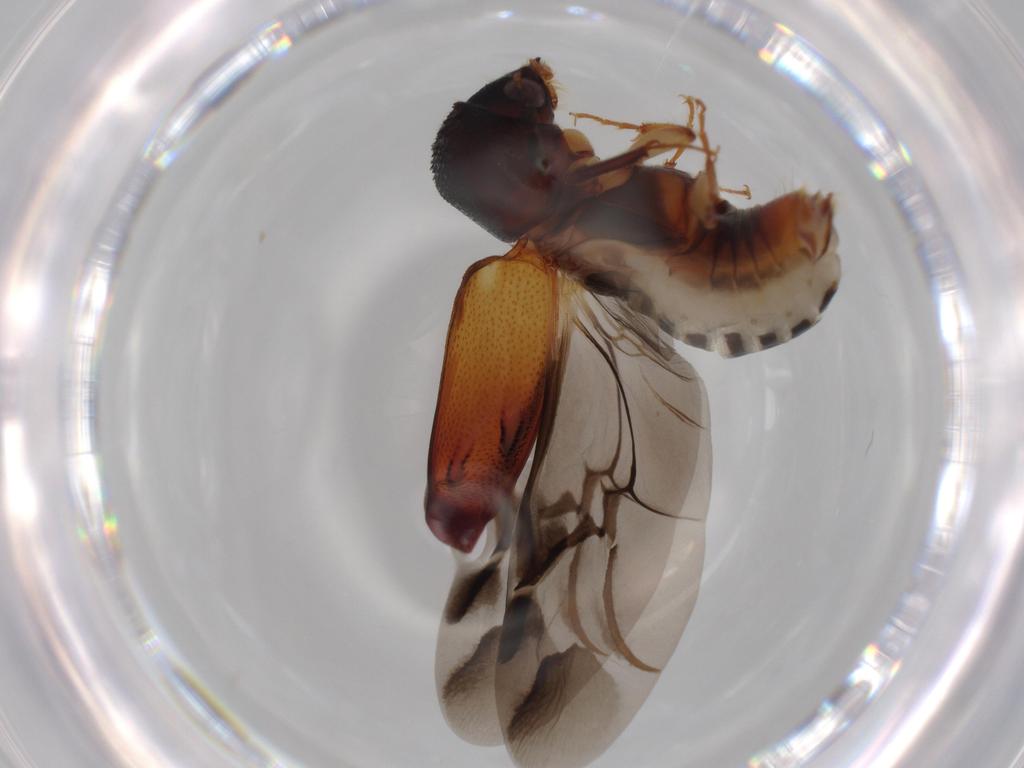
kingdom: Animalia
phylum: Arthropoda
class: Insecta
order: Coleoptera
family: Bostrichidae
